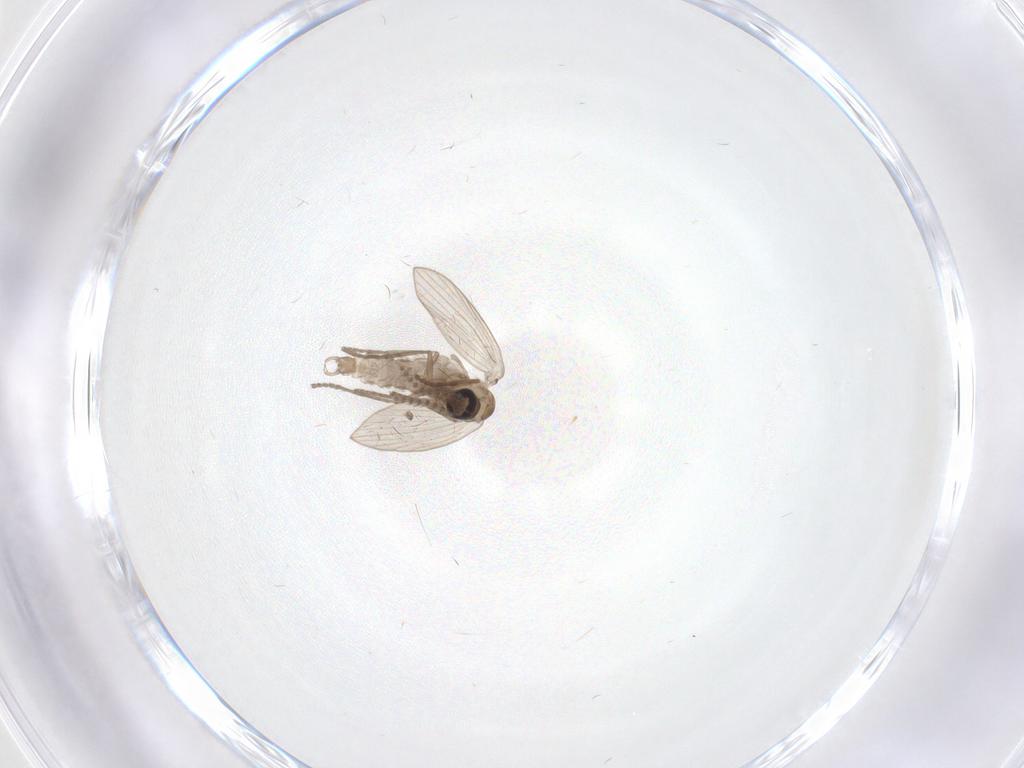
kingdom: Animalia
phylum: Arthropoda
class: Insecta
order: Diptera
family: Psychodidae
